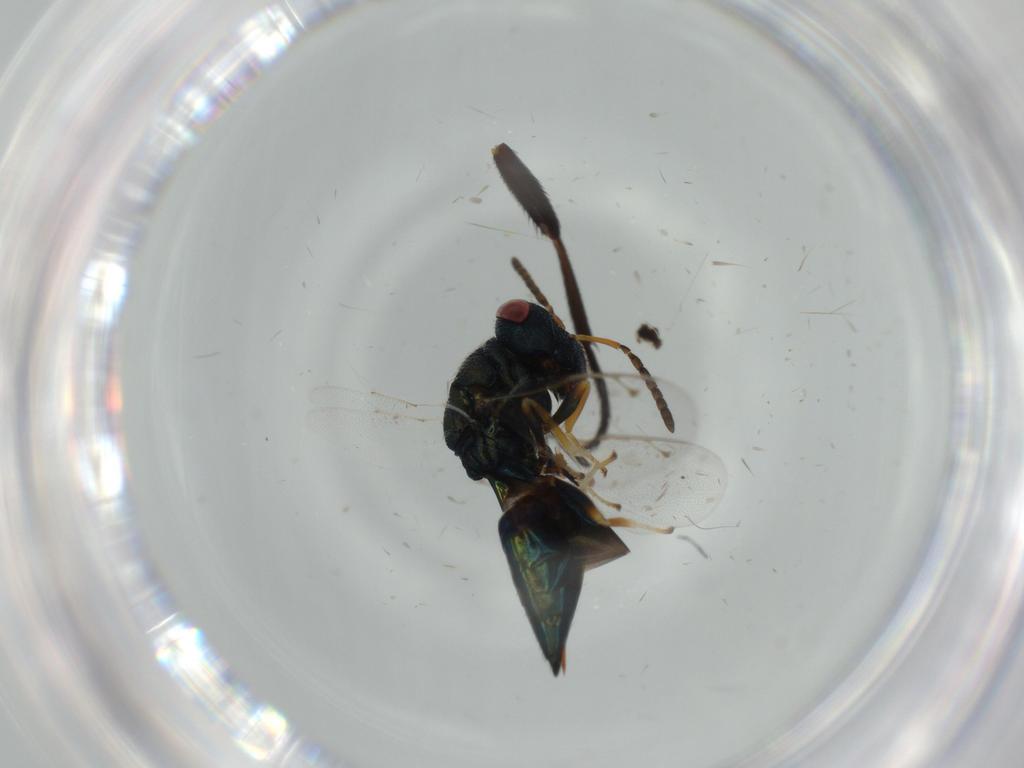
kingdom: Animalia
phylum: Arthropoda
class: Insecta
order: Hymenoptera
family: Pteromalidae
